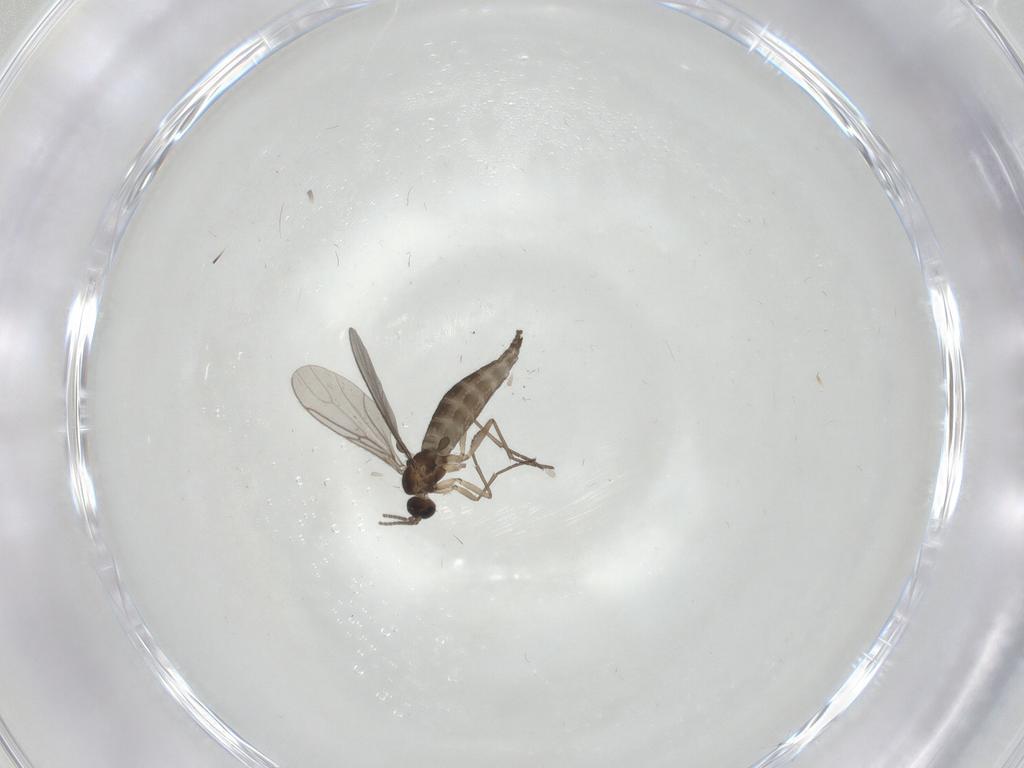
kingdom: Animalia
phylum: Arthropoda
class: Insecta
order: Diptera
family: Sciaridae
